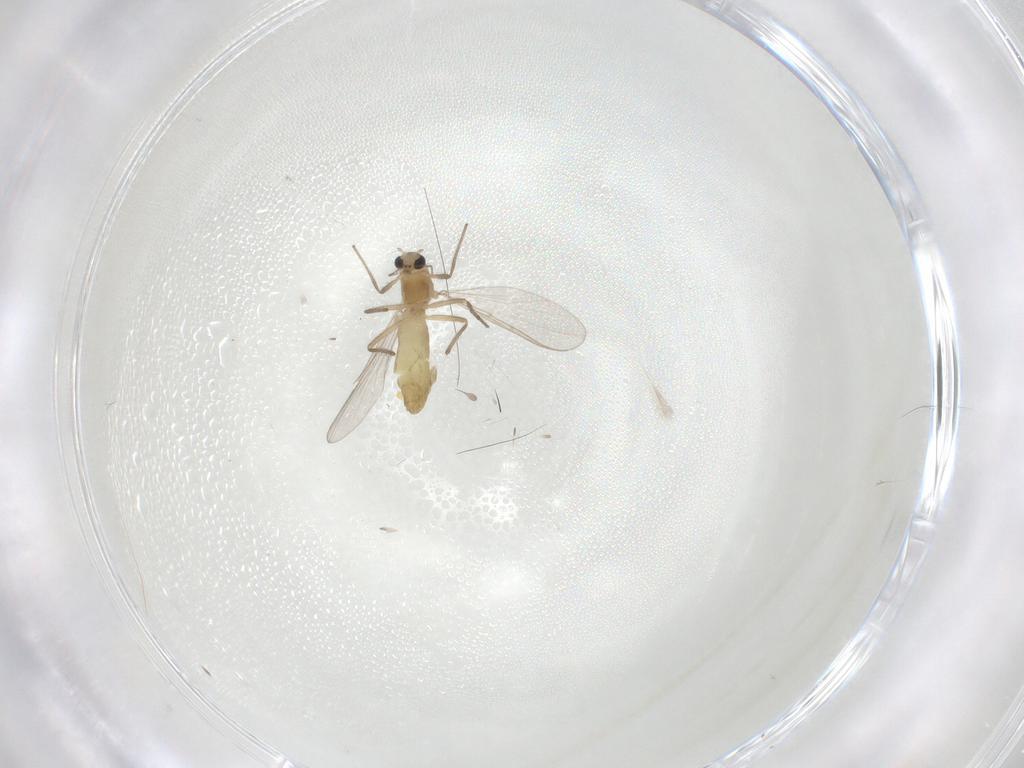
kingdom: Animalia
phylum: Arthropoda
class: Insecta
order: Diptera
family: Chironomidae
